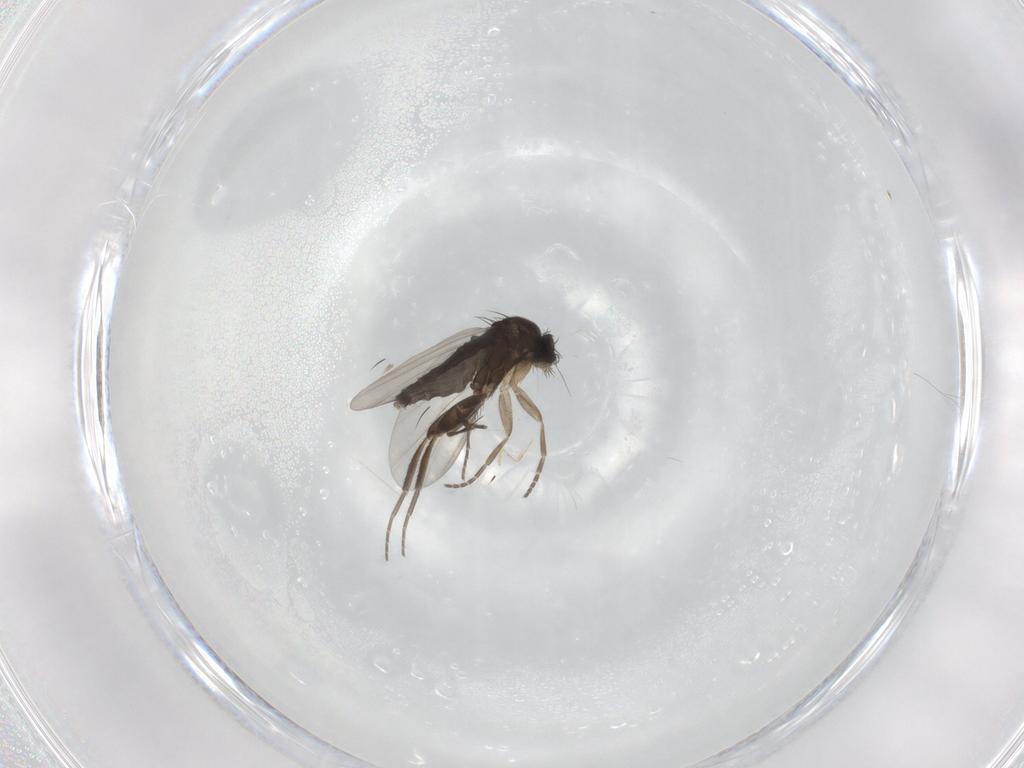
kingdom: Animalia
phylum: Arthropoda
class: Insecta
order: Diptera
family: Phoridae
